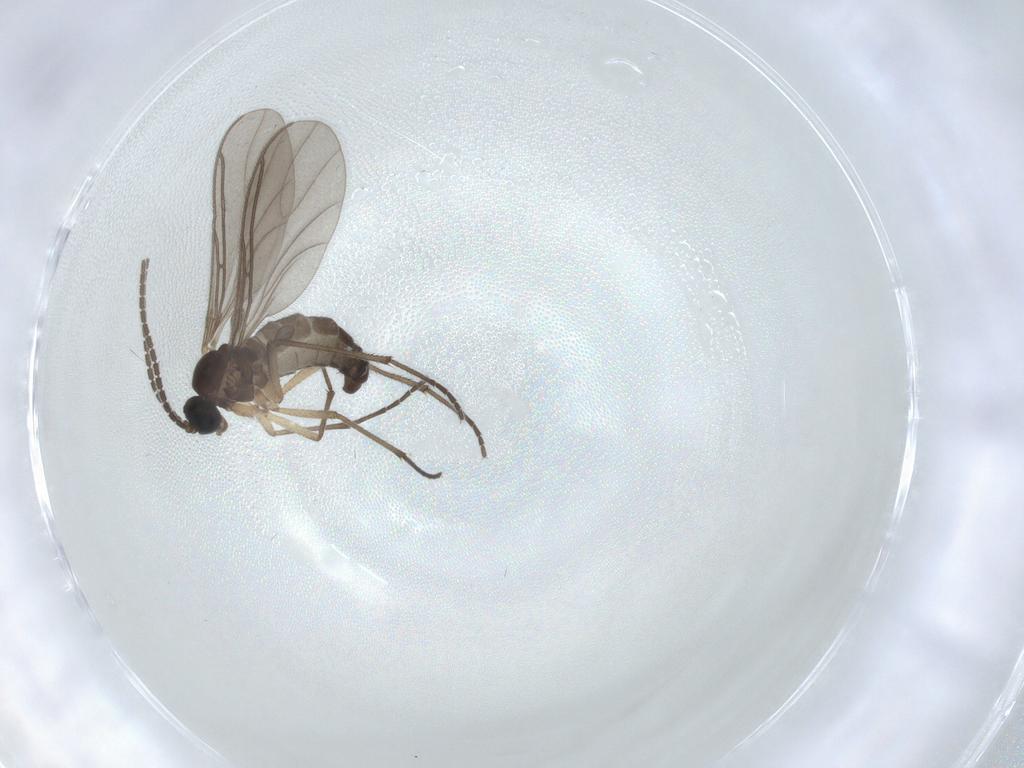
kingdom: Animalia
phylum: Arthropoda
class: Insecta
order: Diptera
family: Sciaridae
